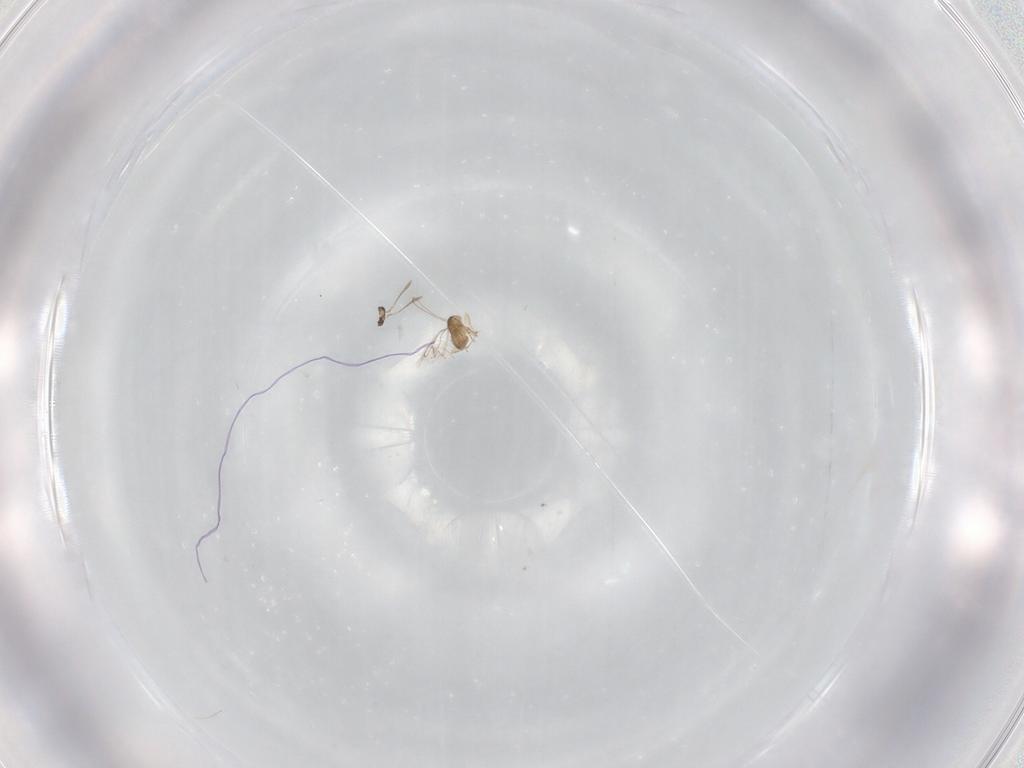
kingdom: Animalia
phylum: Arthropoda
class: Insecta
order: Hymenoptera
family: Mymaridae
